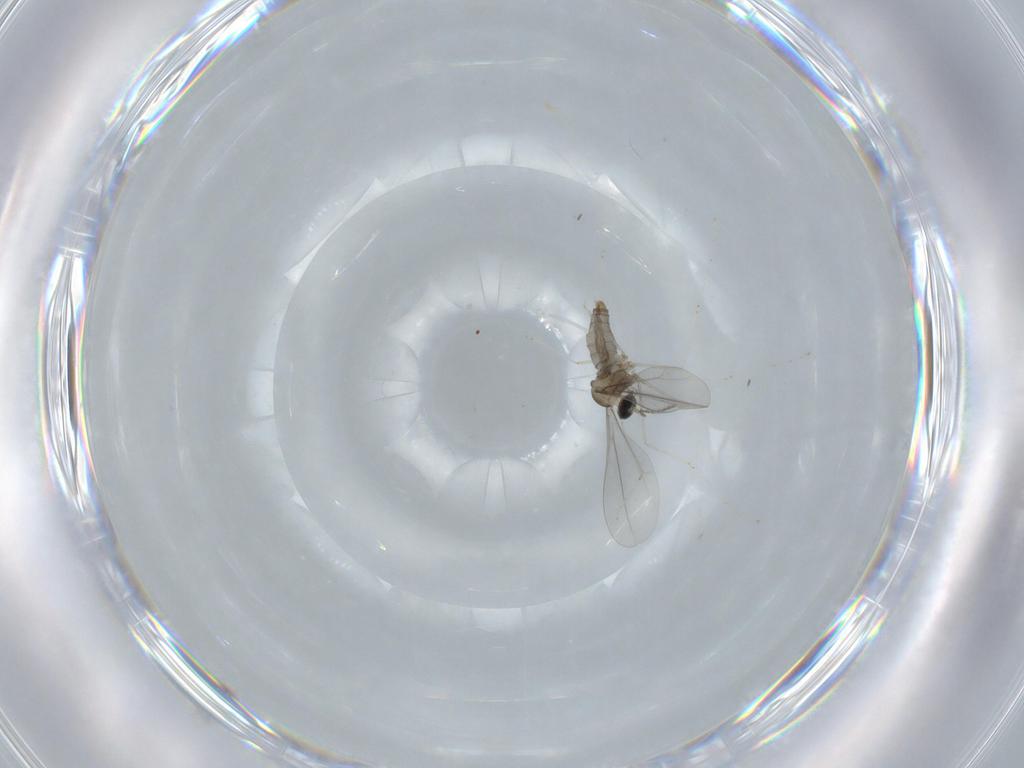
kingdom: Animalia
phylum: Arthropoda
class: Insecta
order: Diptera
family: Cecidomyiidae
